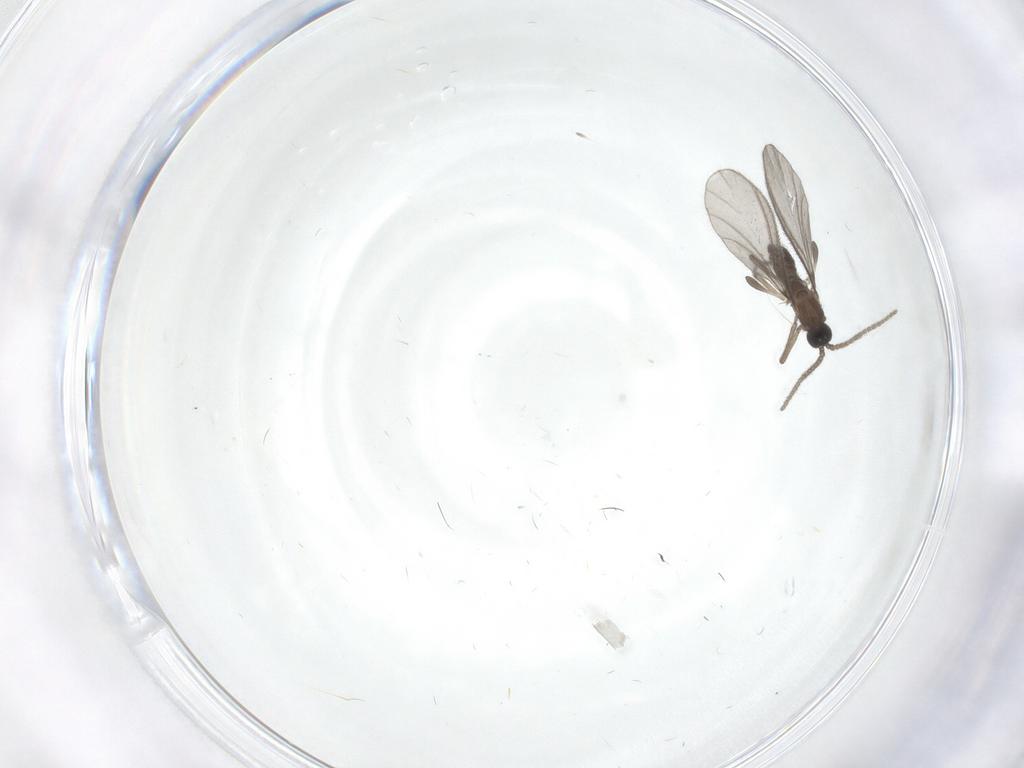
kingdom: Animalia
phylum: Arthropoda
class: Insecta
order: Diptera
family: Sciaridae
